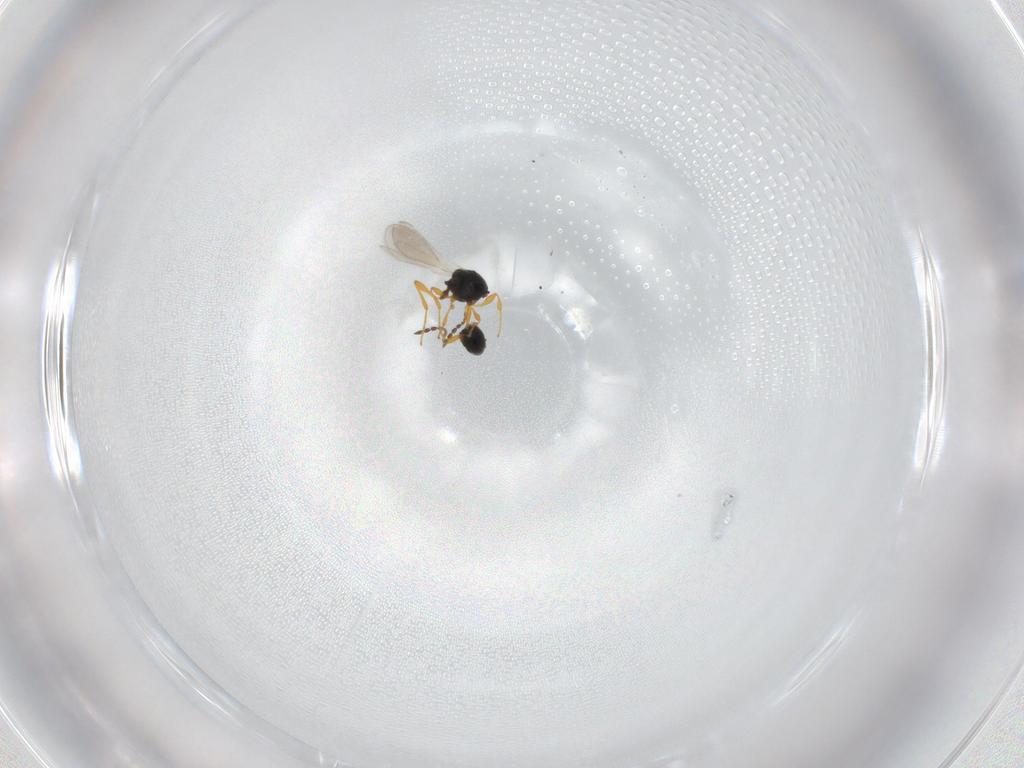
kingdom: Animalia
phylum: Arthropoda
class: Insecta
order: Hymenoptera
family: Platygastridae
